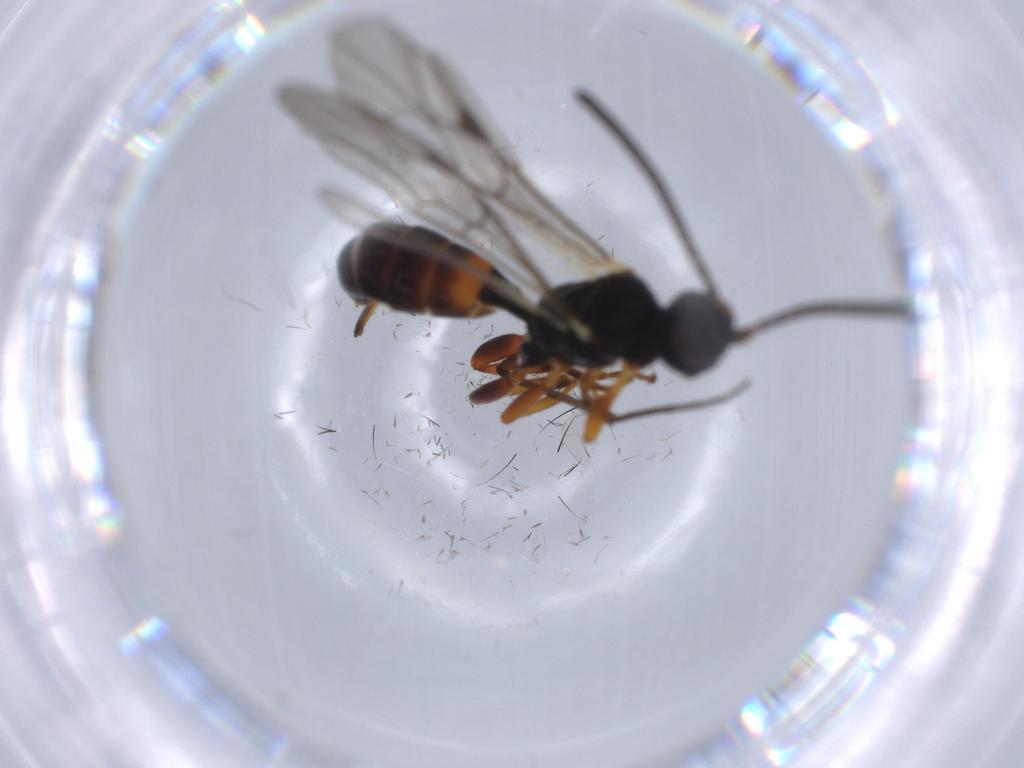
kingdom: Animalia
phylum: Arthropoda
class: Insecta
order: Hymenoptera
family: Ichneumonidae
